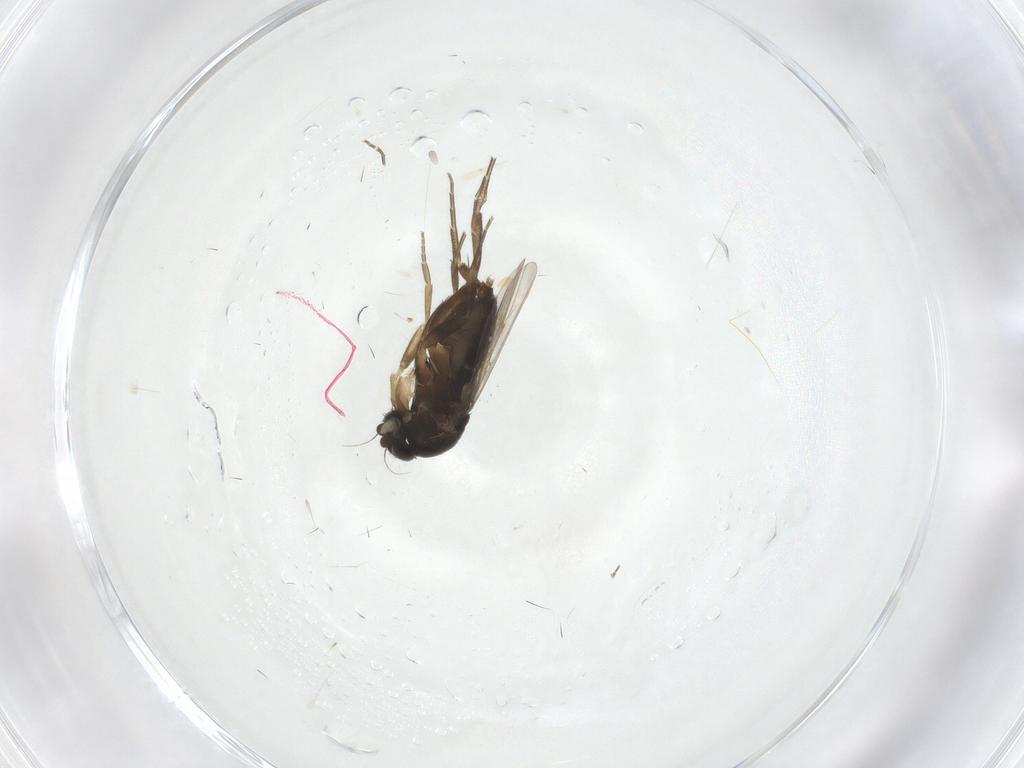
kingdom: Animalia
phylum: Arthropoda
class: Insecta
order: Diptera
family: Phoridae
